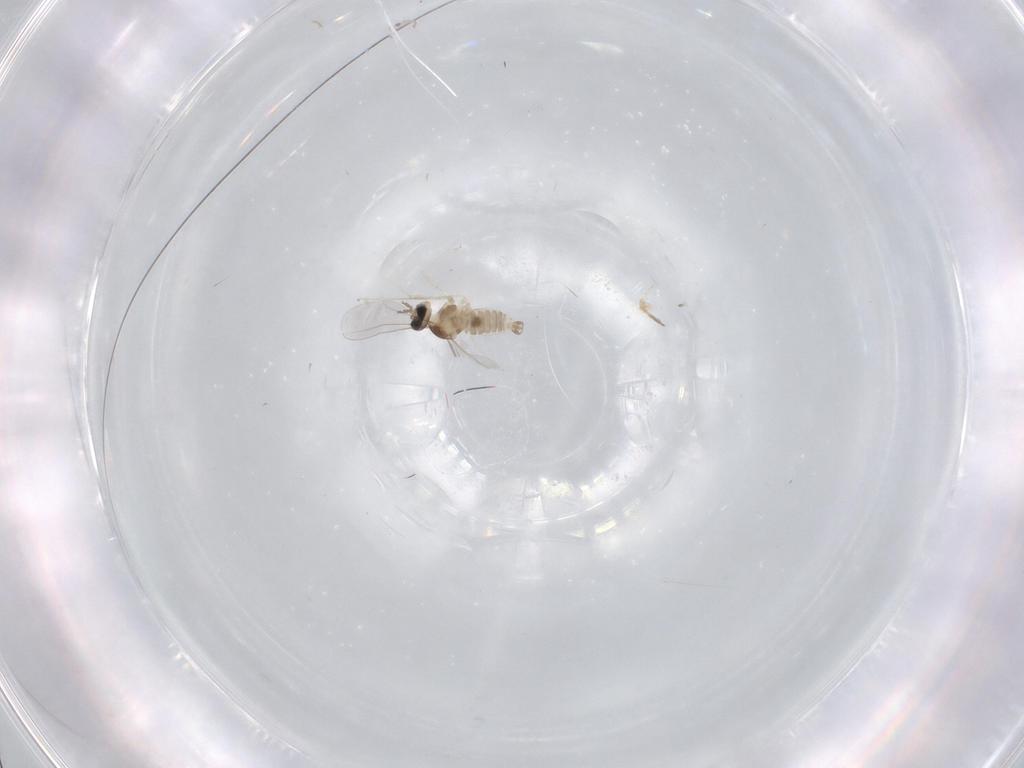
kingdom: Animalia
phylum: Arthropoda
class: Insecta
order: Diptera
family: Cecidomyiidae
